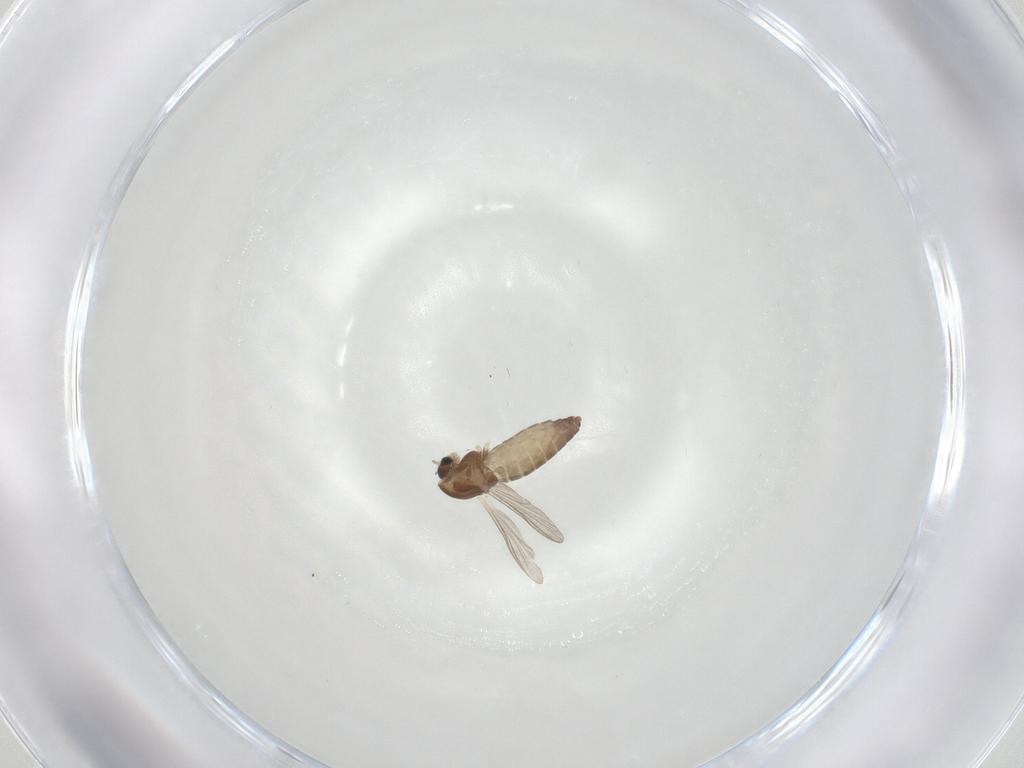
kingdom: Animalia
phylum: Arthropoda
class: Insecta
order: Diptera
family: Chironomidae
